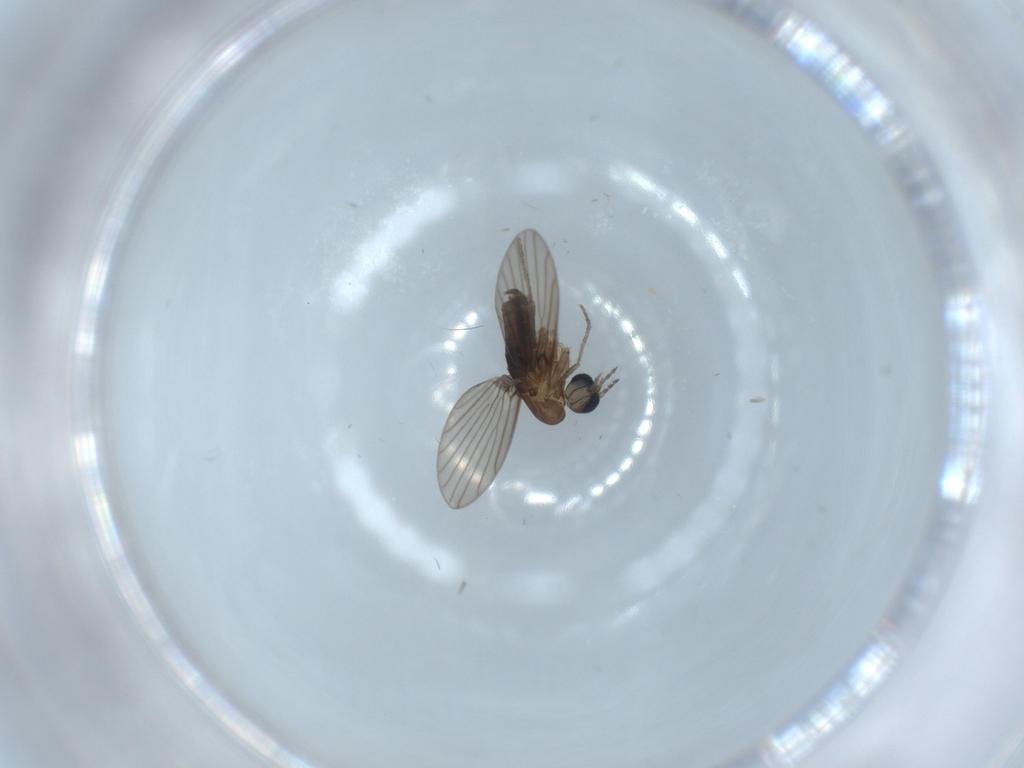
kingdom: Animalia
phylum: Arthropoda
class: Insecta
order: Diptera
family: Psychodidae
